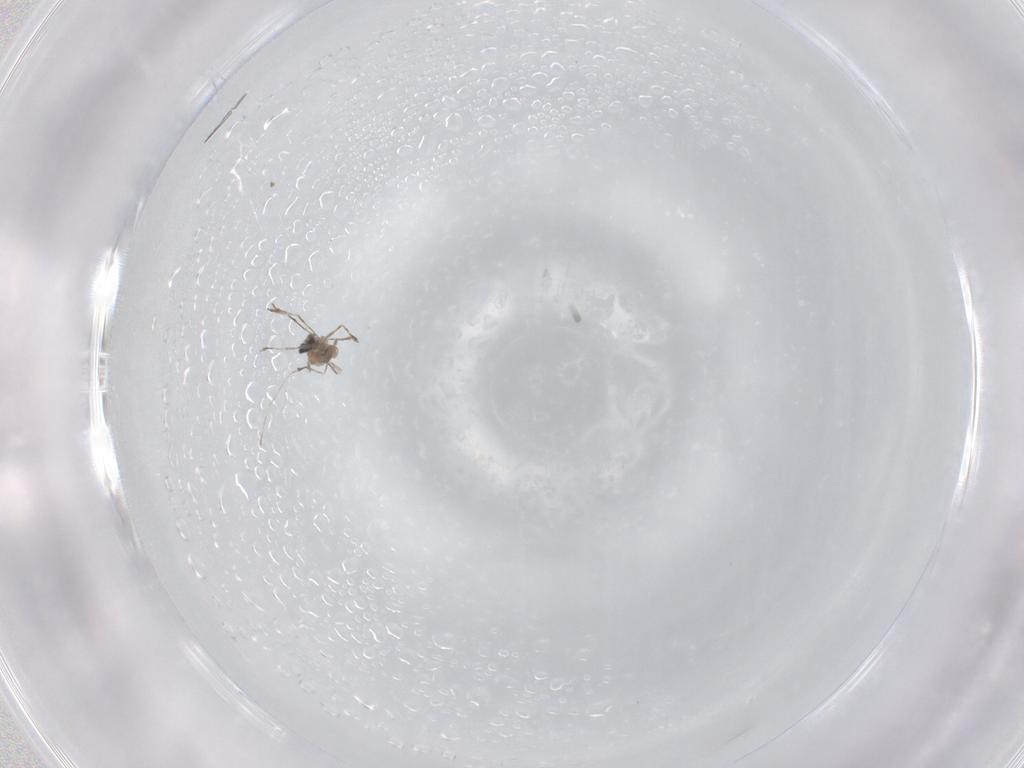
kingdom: Animalia
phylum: Arthropoda
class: Insecta
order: Diptera
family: Sciaridae
